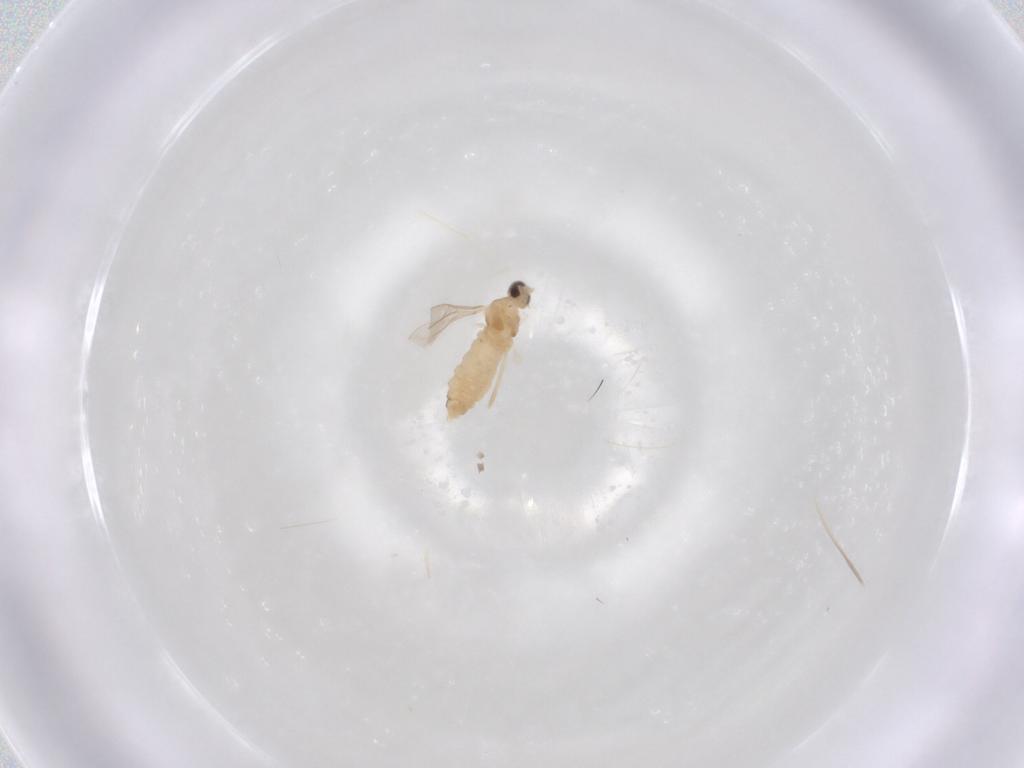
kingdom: Animalia
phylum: Arthropoda
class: Insecta
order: Diptera
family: Cecidomyiidae
